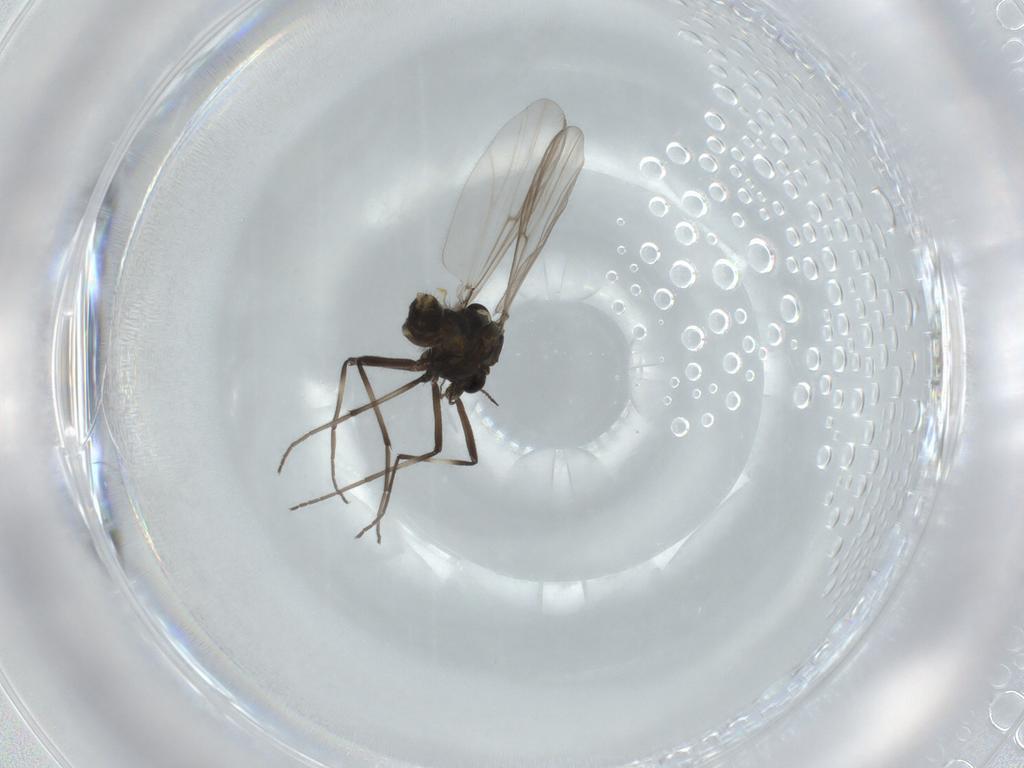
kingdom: Animalia
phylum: Arthropoda
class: Insecta
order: Diptera
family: Chironomidae
